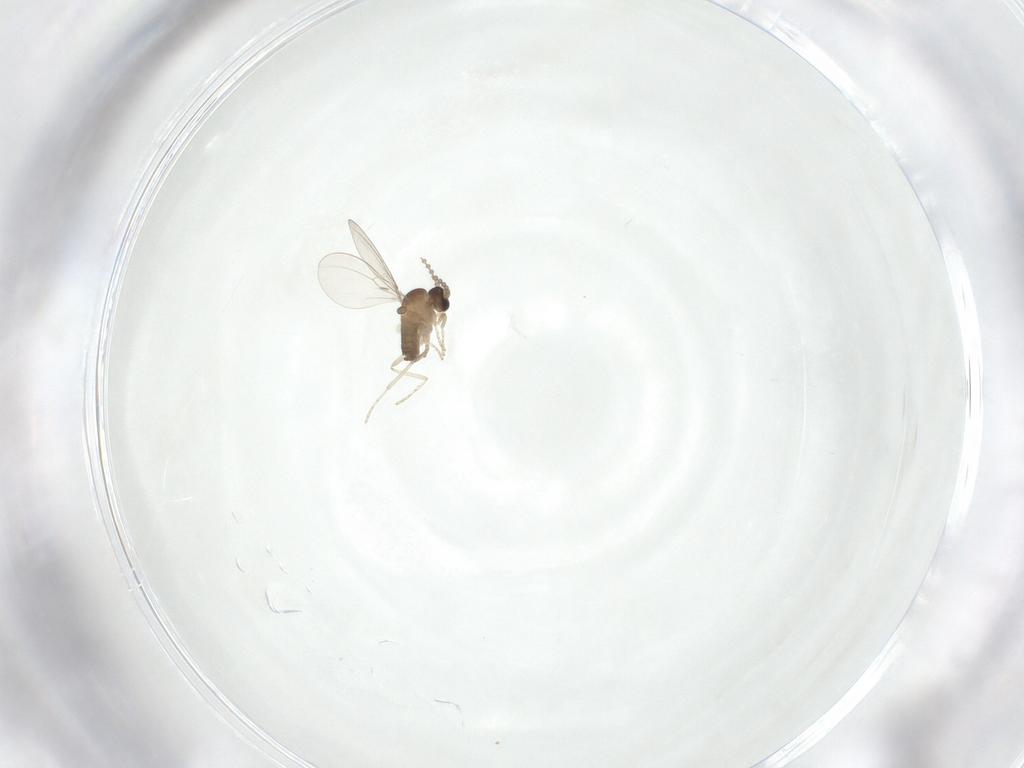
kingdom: Animalia
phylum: Arthropoda
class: Insecta
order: Diptera
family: Cecidomyiidae
